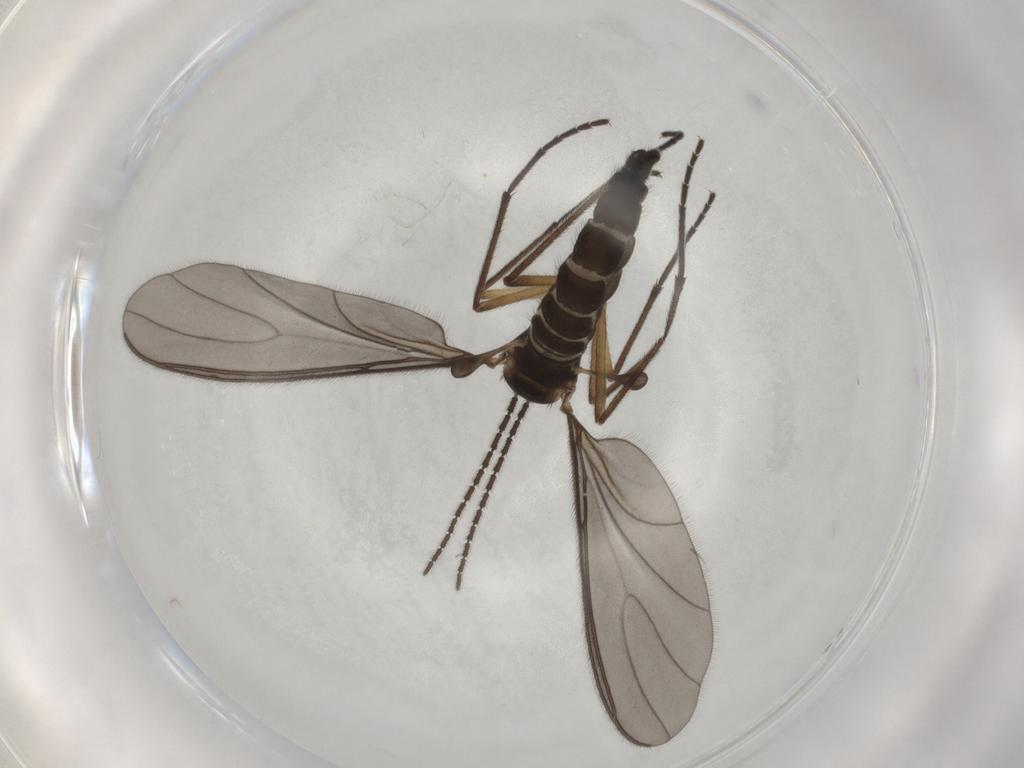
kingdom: Animalia
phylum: Arthropoda
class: Insecta
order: Diptera
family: Sciaridae
